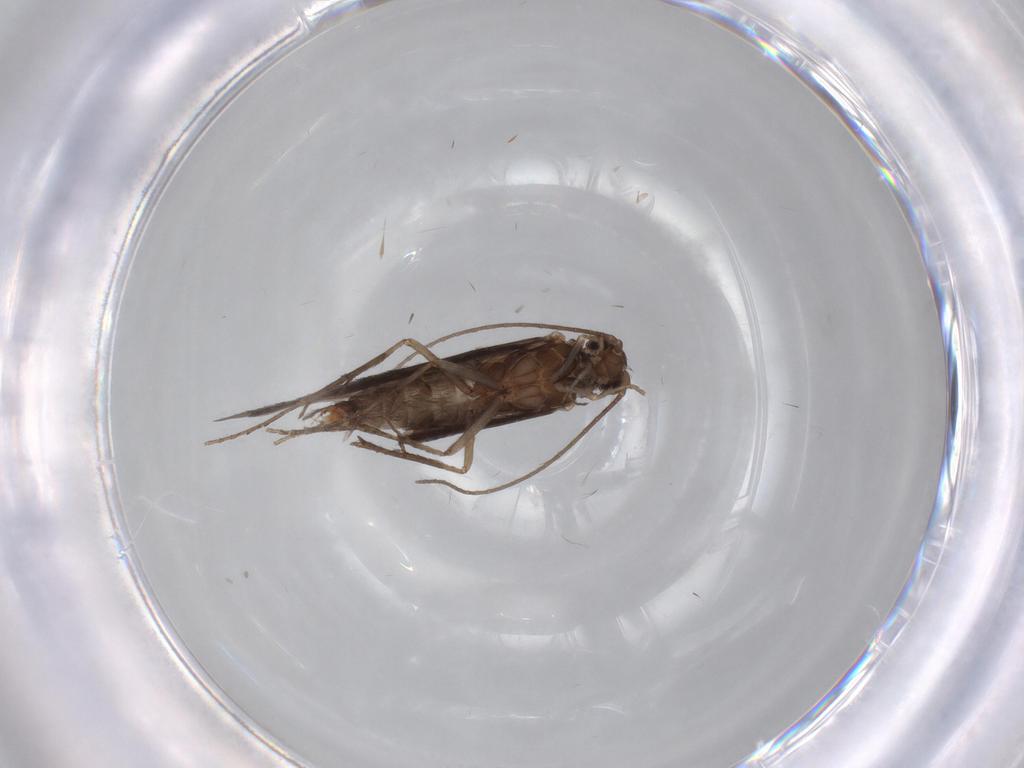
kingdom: Animalia
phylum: Arthropoda
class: Insecta
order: Trichoptera
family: Xiphocentronidae
